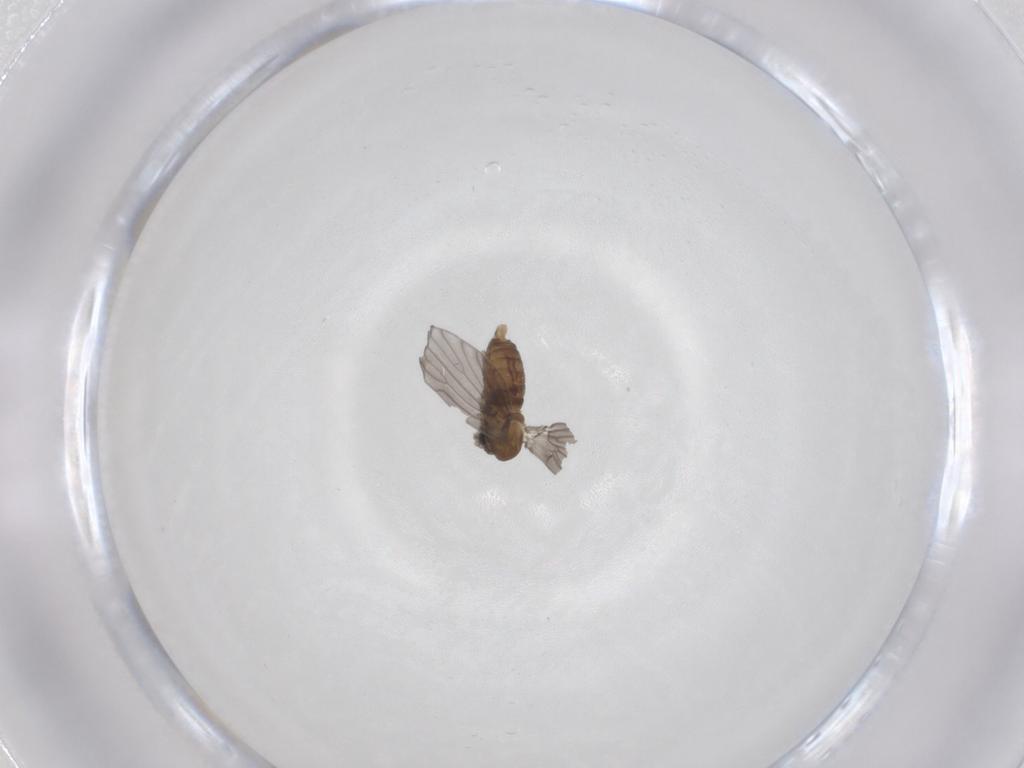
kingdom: Animalia
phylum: Arthropoda
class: Insecta
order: Diptera
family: Psychodidae
